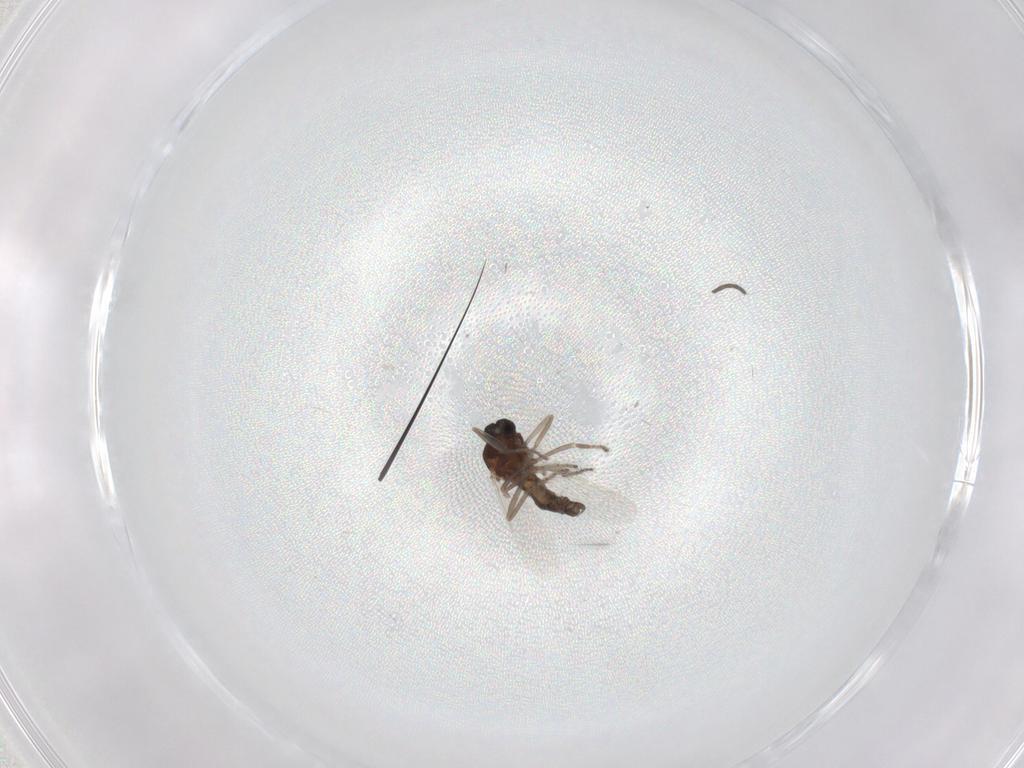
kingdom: Animalia
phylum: Arthropoda
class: Insecta
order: Diptera
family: Ceratopogonidae
